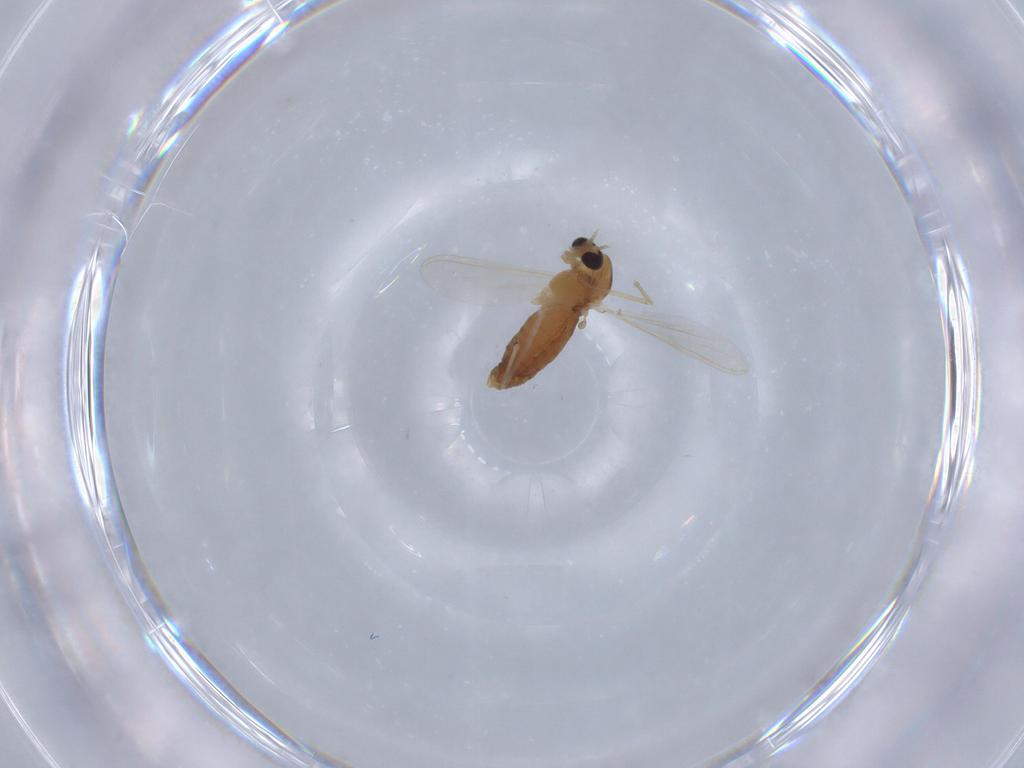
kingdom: Animalia
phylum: Arthropoda
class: Insecta
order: Diptera
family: Chironomidae
